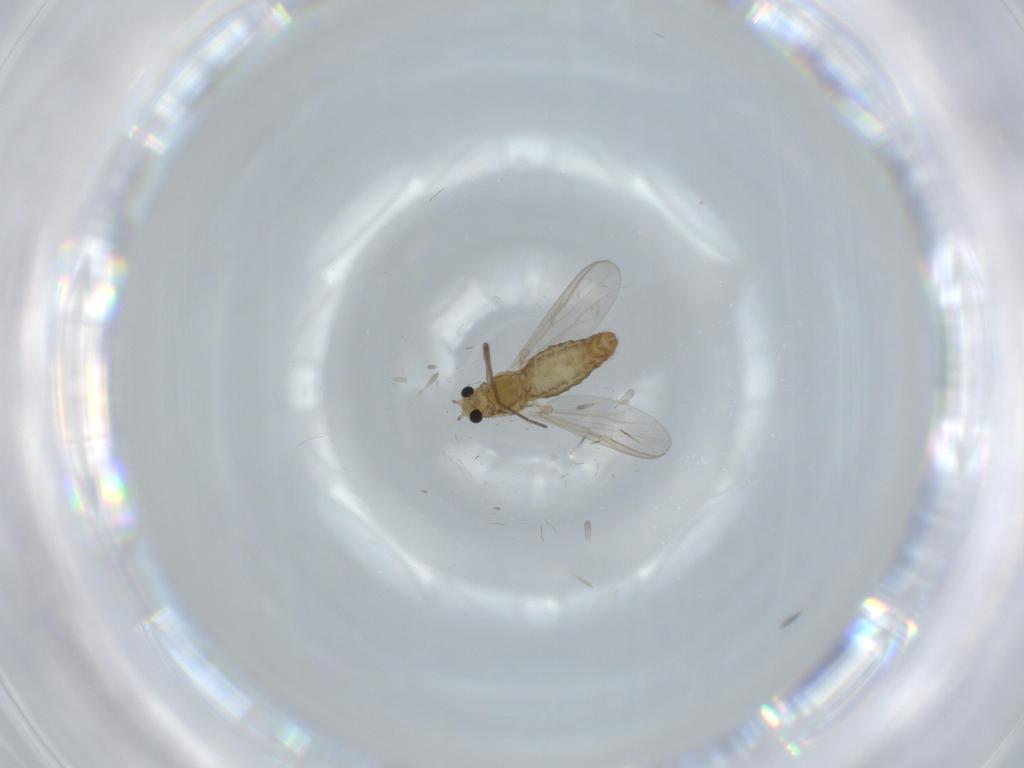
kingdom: Animalia
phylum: Arthropoda
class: Insecta
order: Diptera
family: Chironomidae
